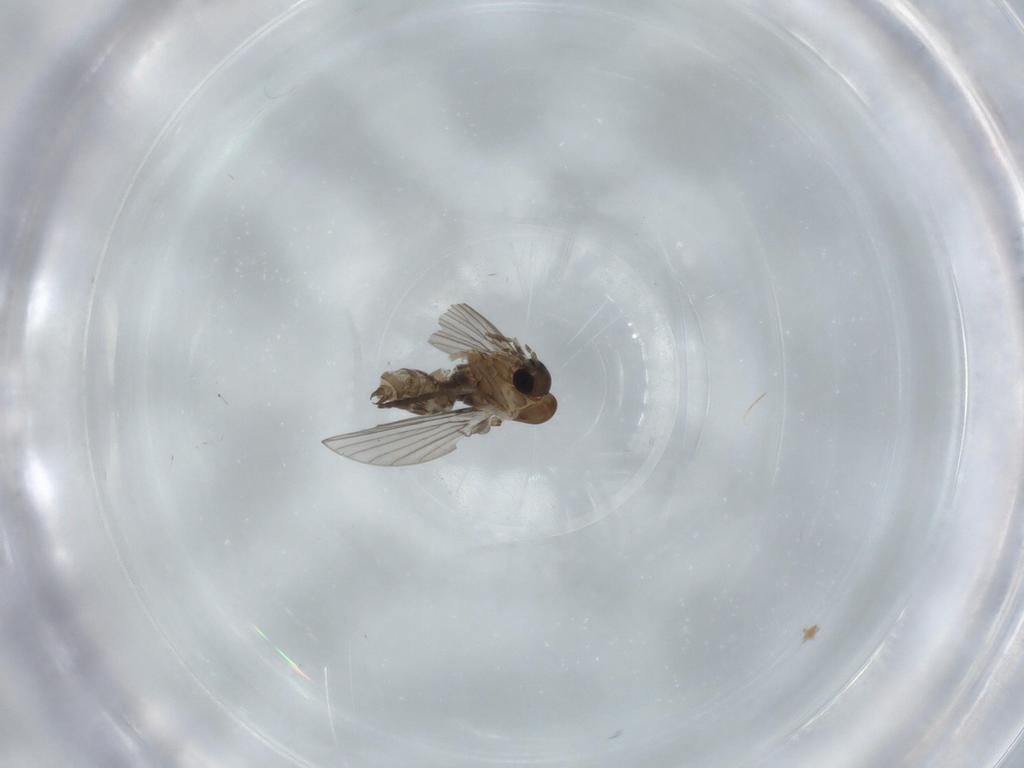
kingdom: Animalia
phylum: Arthropoda
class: Insecta
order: Diptera
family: Psychodidae
